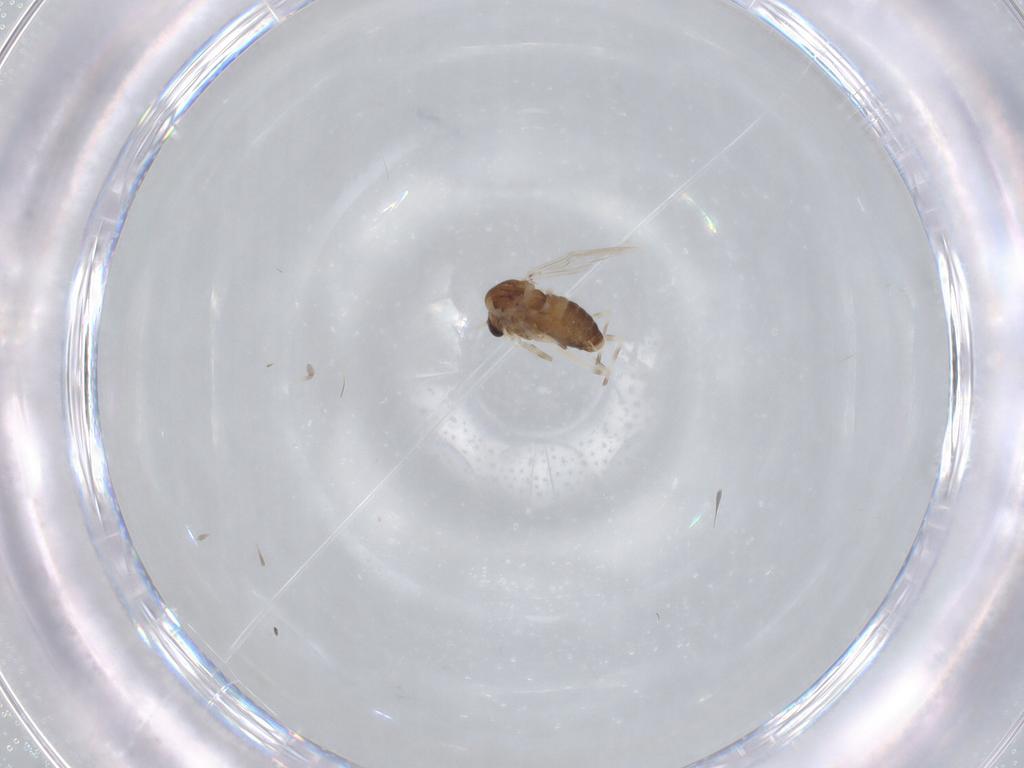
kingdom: Animalia
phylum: Arthropoda
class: Insecta
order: Diptera
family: Chironomidae
